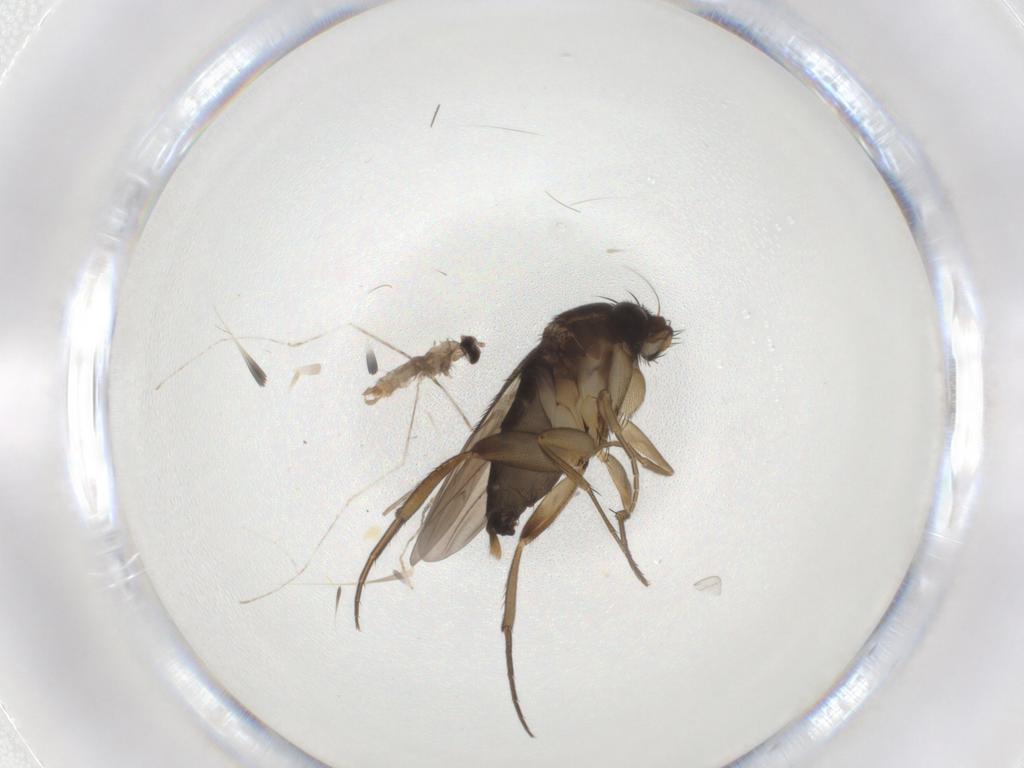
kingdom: Animalia
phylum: Arthropoda
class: Insecta
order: Diptera
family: Phoridae
